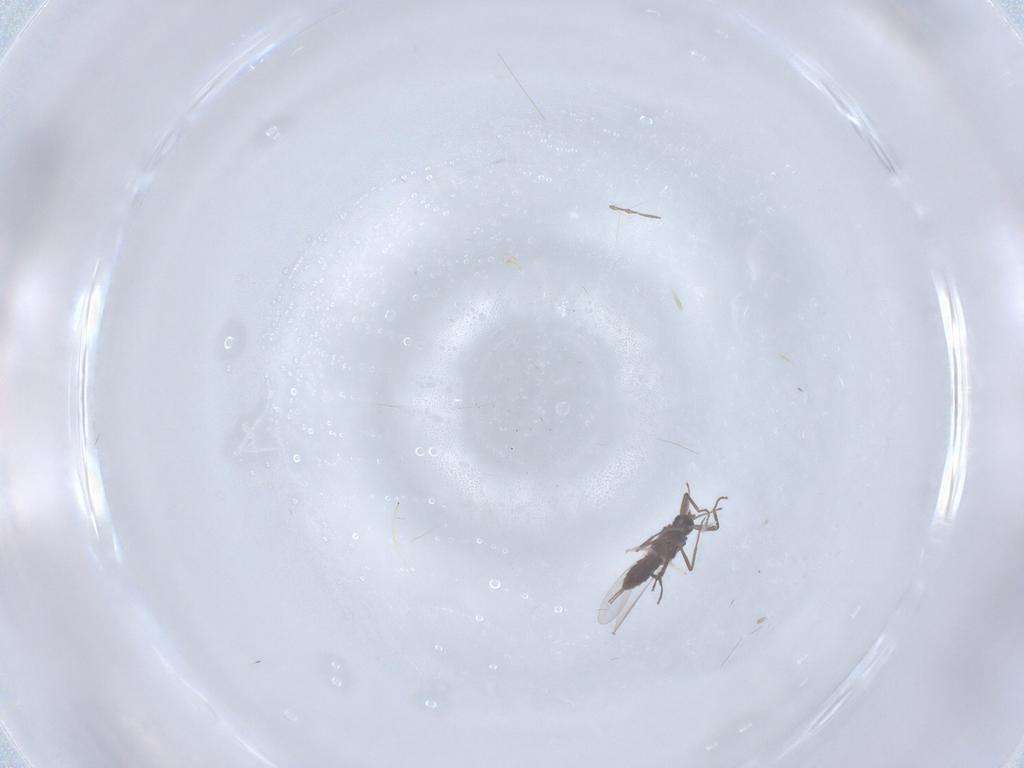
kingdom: Animalia
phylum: Arthropoda
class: Insecta
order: Diptera
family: Ceratopogonidae
